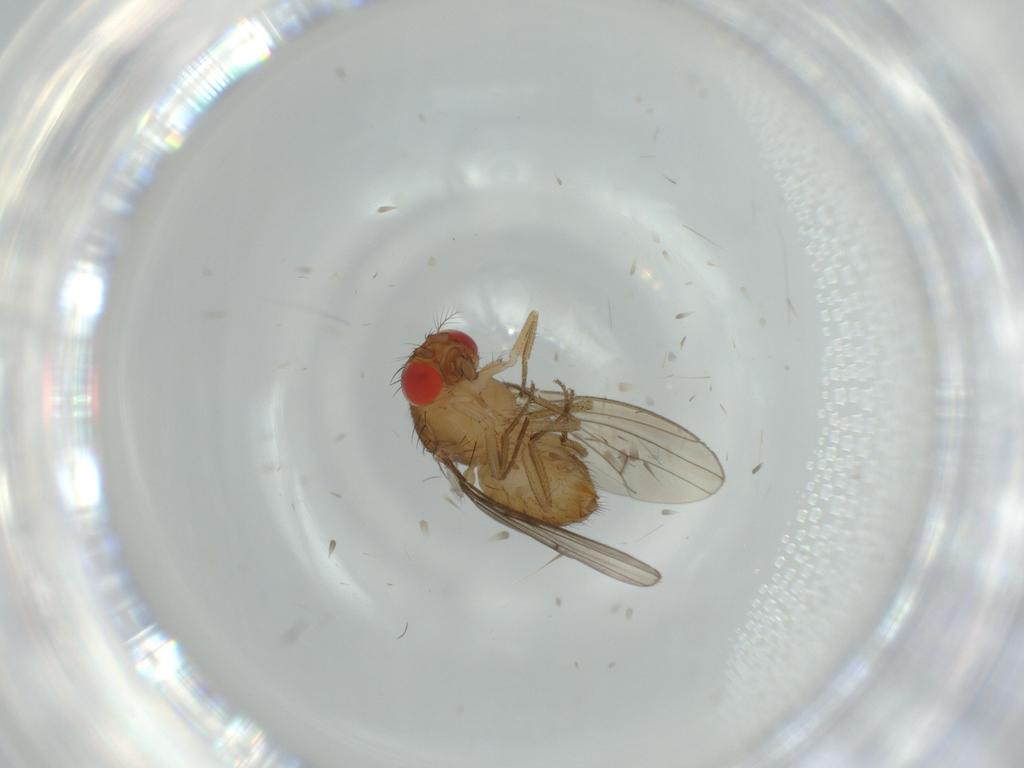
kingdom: Animalia
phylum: Arthropoda
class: Insecta
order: Diptera
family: Drosophilidae
